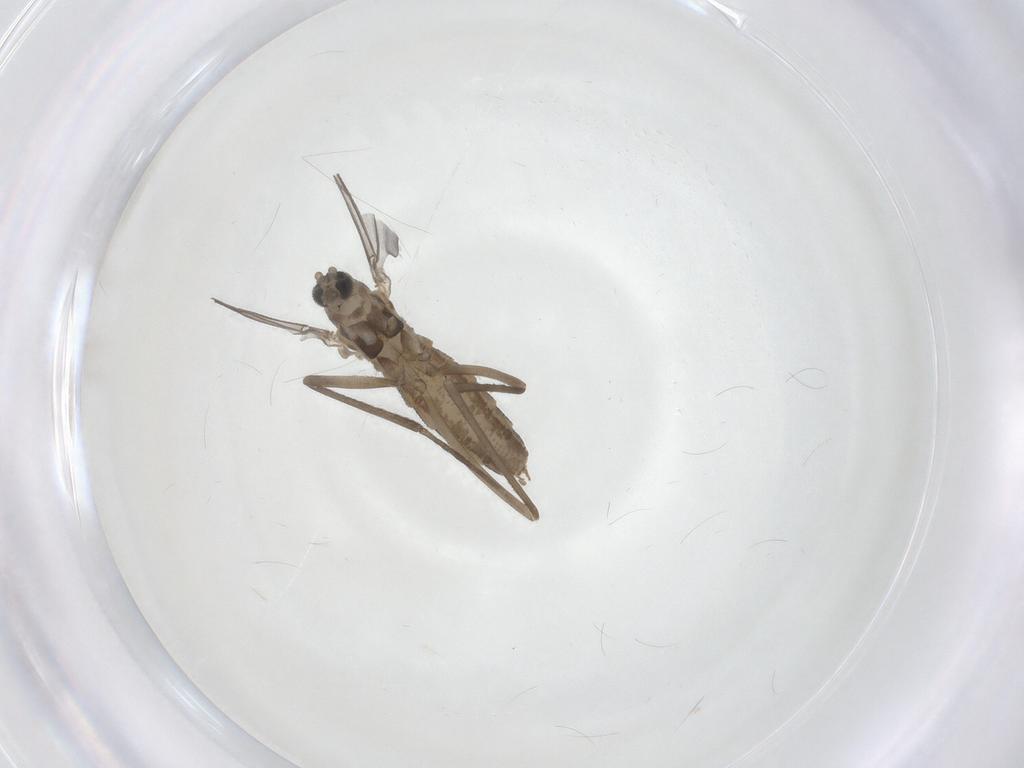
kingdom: Animalia
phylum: Arthropoda
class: Insecta
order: Diptera
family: Cecidomyiidae
